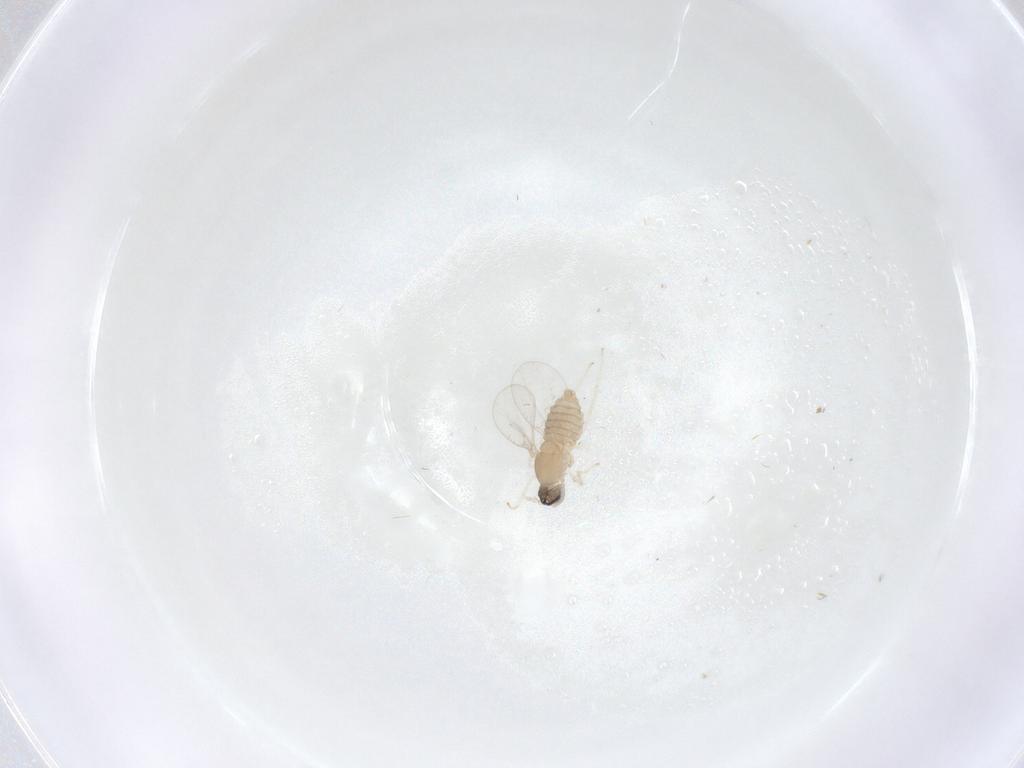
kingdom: Animalia
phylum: Arthropoda
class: Insecta
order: Diptera
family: Cecidomyiidae
